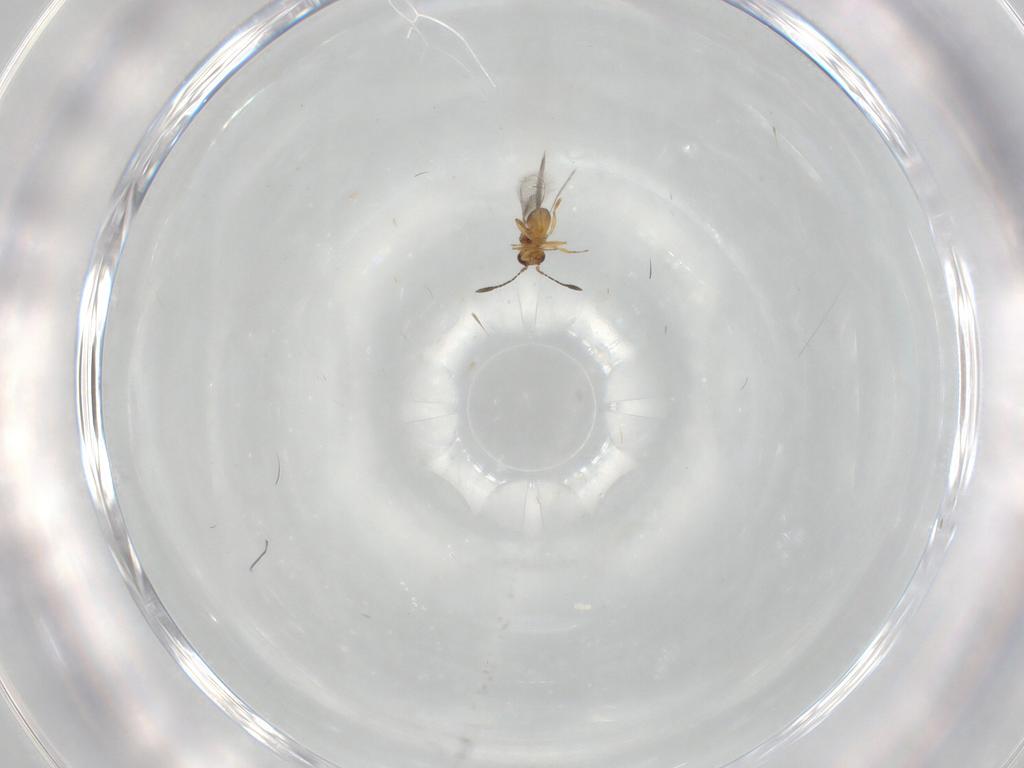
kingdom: Animalia
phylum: Arthropoda
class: Insecta
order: Hymenoptera
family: Mymaridae
